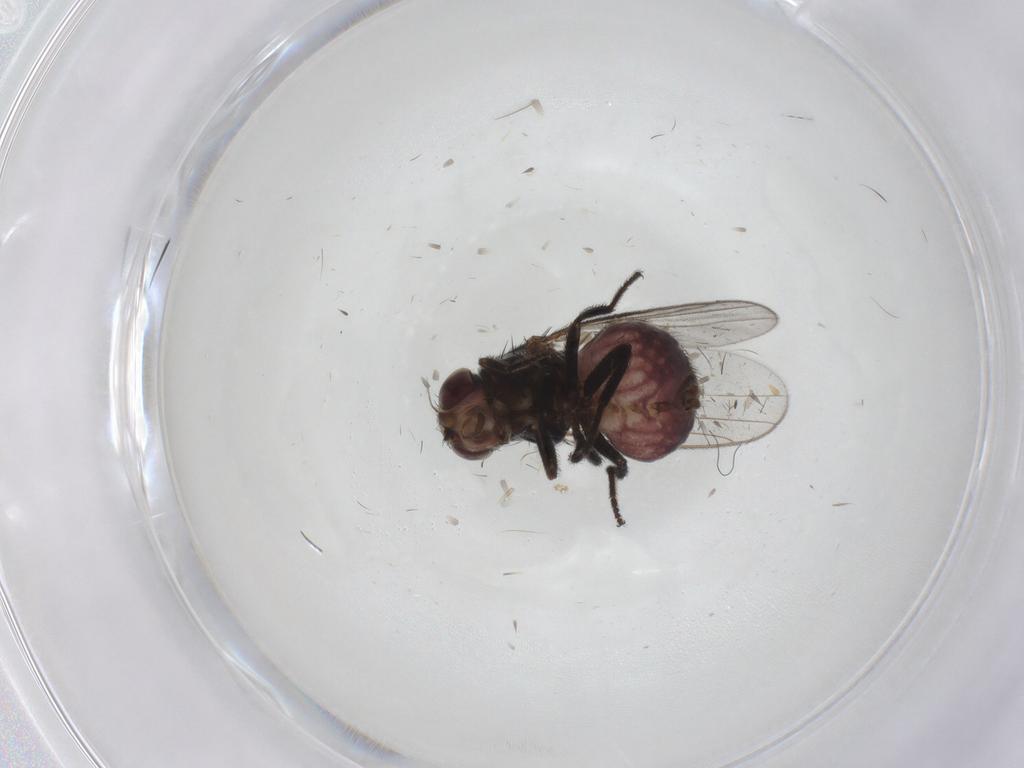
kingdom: Animalia
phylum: Arthropoda
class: Insecta
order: Diptera
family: Chloropidae
